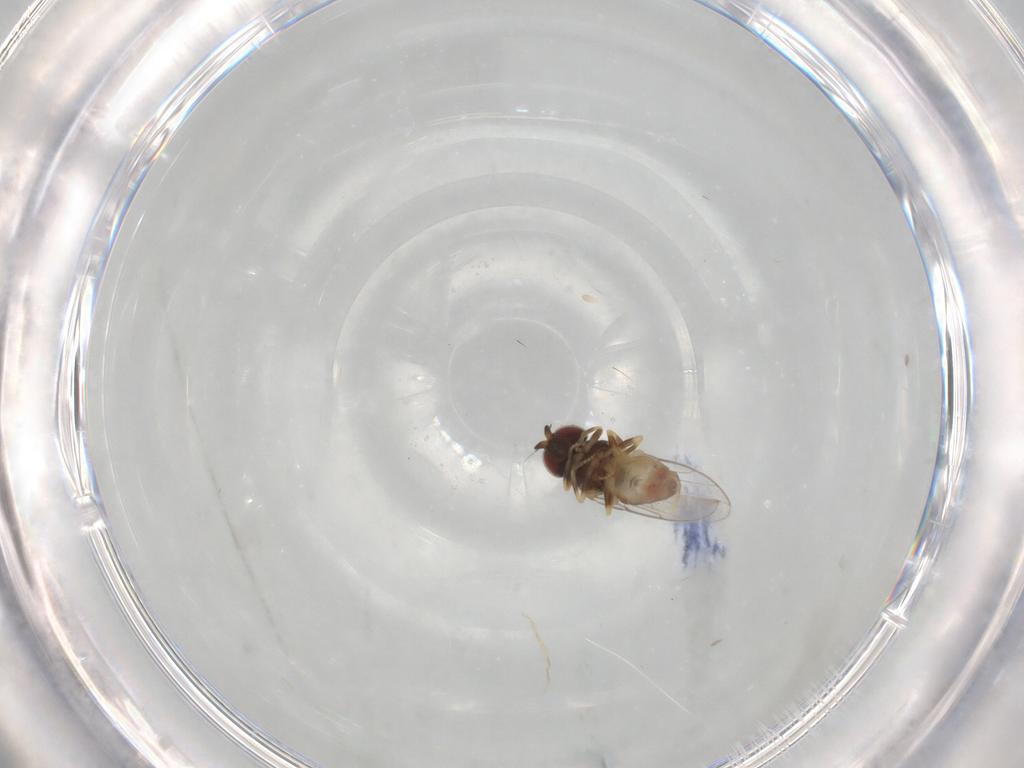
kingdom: Animalia
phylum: Arthropoda
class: Insecta
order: Diptera
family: Chloropidae
